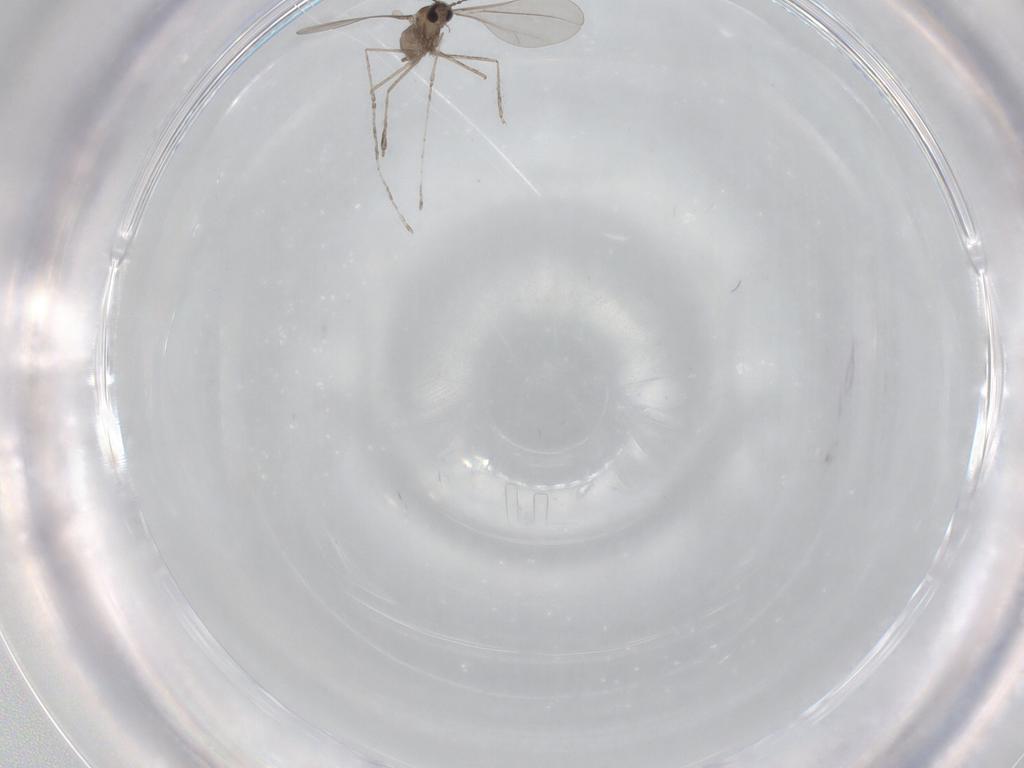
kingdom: Animalia
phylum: Arthropoda
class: Insecta
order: Diptera
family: Cecidomyiidae
